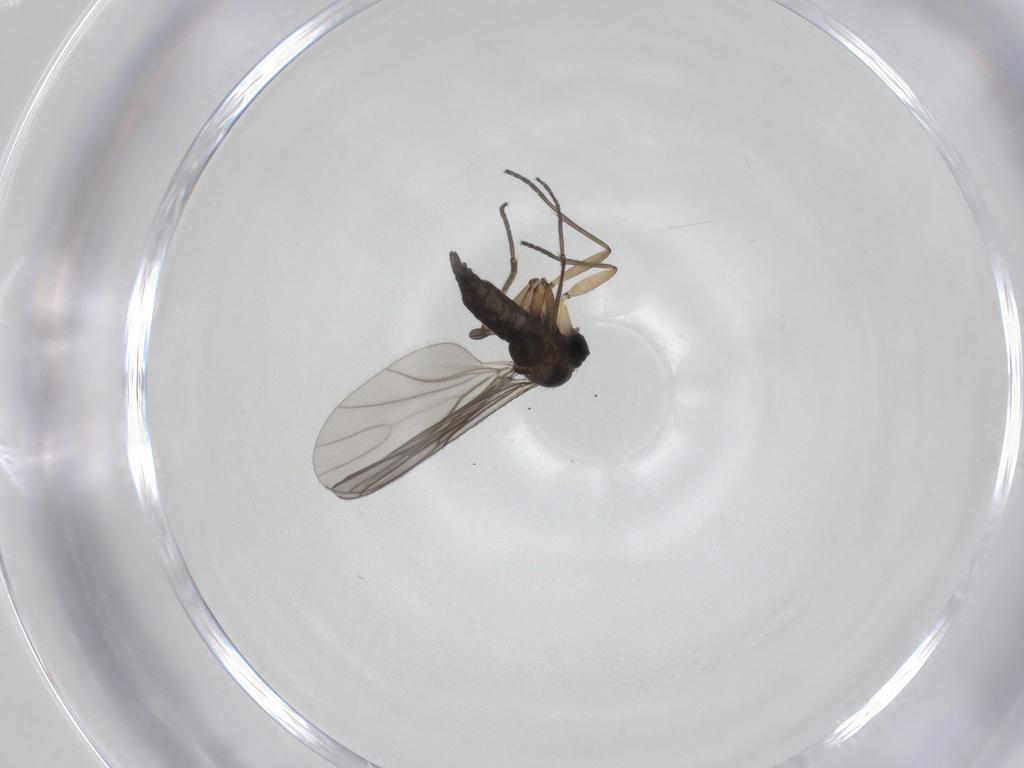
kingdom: Animalia
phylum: Arthropoda
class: Insecta
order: Diptera
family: Sciaridae
